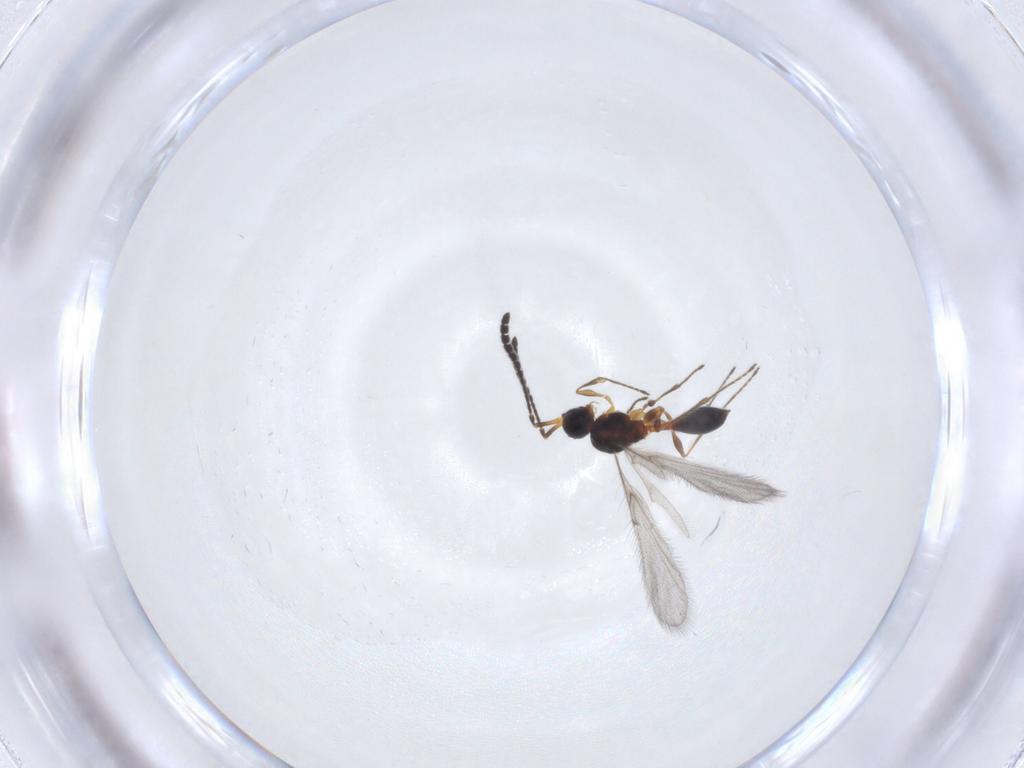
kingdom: Animalia
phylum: Arthropoda
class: Insecta
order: Hymenoptera
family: Diapriidae
